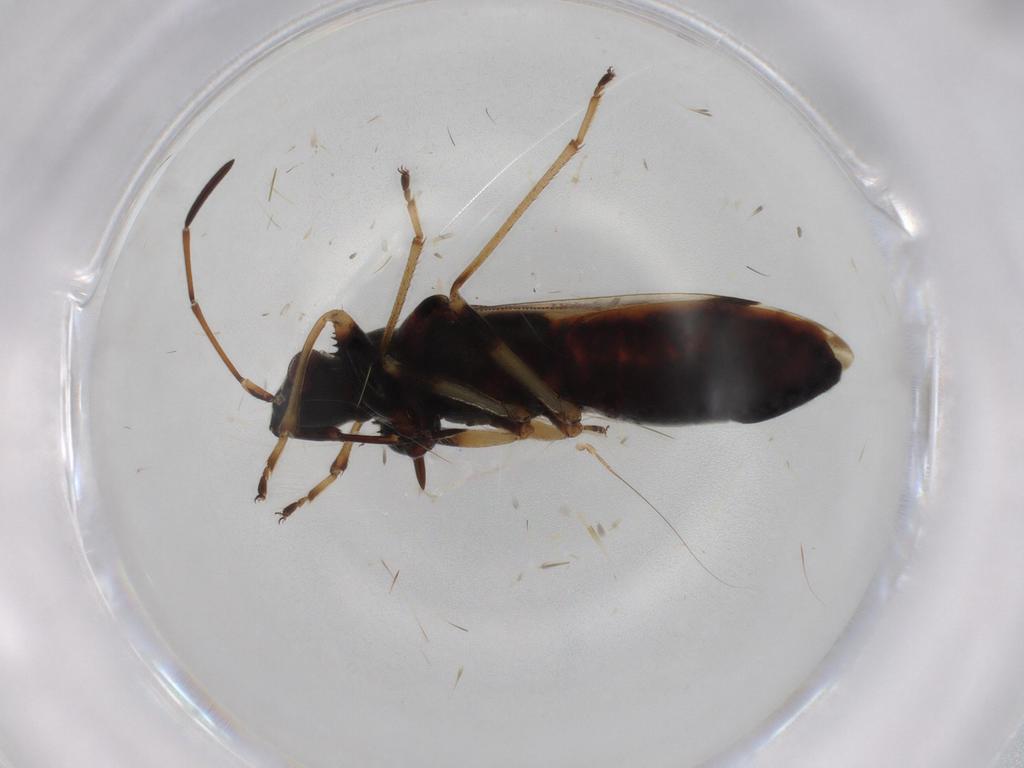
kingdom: Animalia
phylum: Arthropoda
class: Insecta
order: Hemiptera
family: Rhyparochromidae
